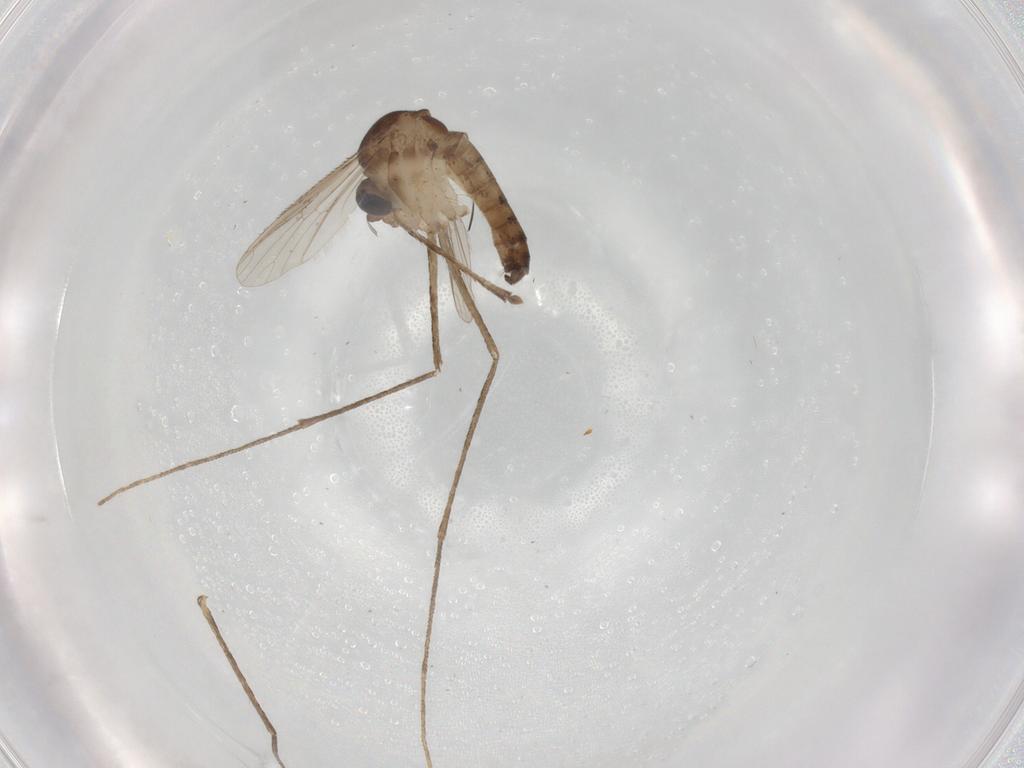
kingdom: Animalia
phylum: Arthropoda
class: Insecta
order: Diptera
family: Culicidae
